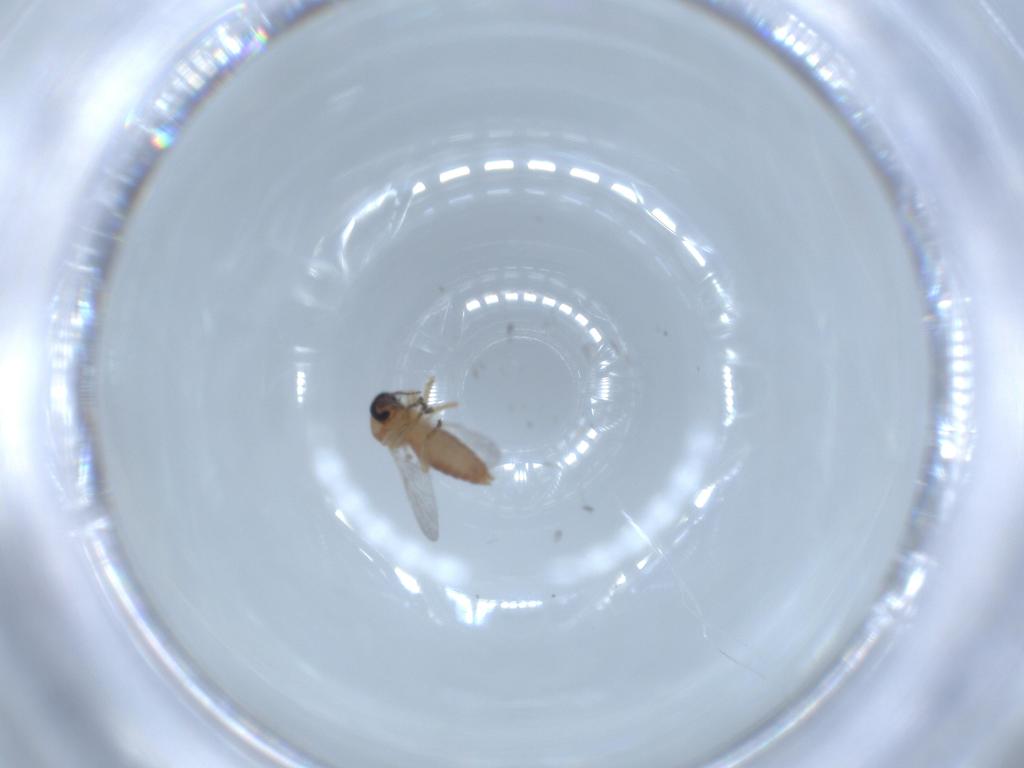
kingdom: Animalia
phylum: Arthropoda
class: Insecta
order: Diptera
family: Ceratopogonidae
